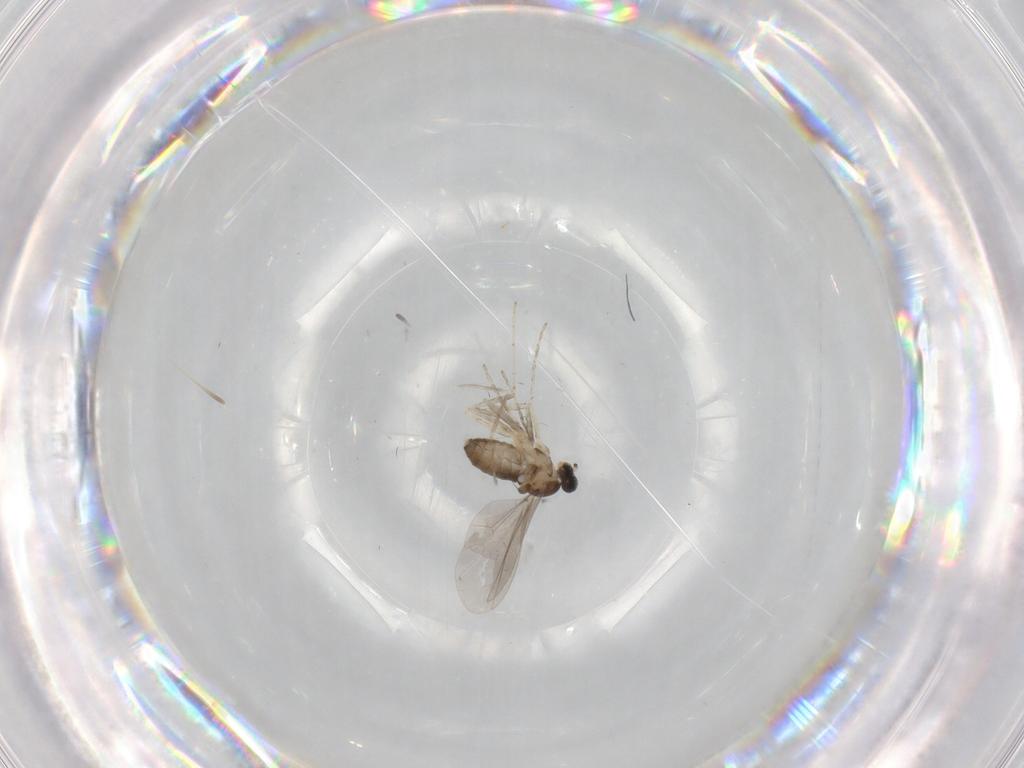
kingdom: Animalia
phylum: Arthropoda
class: Insecta
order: Diptera
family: Cecidomyiidae
